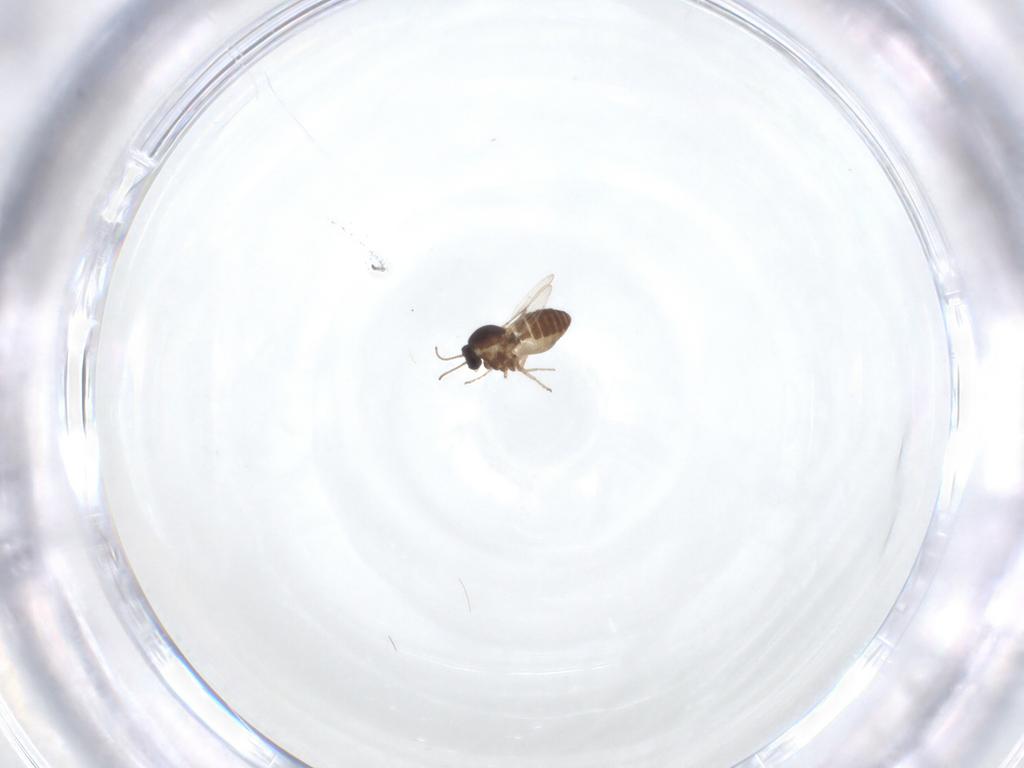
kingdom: Animalia
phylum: Arthropoda
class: Insecta
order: Diptera
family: Ceratopogonidae
